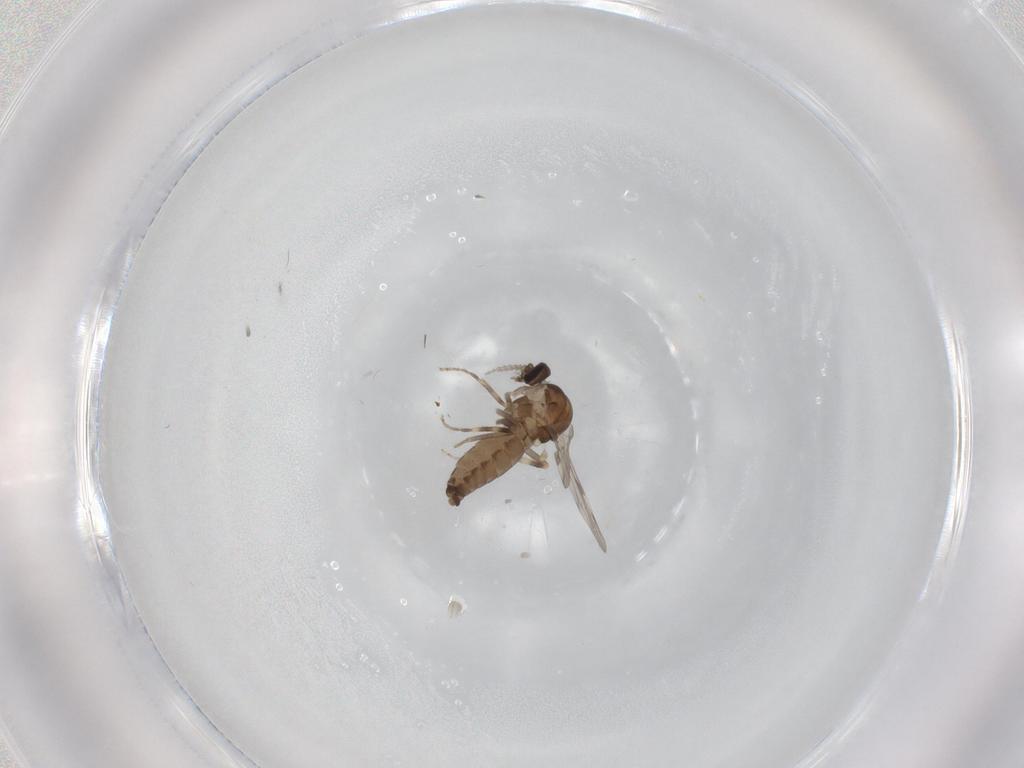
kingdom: Animalia
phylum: Arthropoda
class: Insecta
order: Diptera
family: Ceratopogonidae
